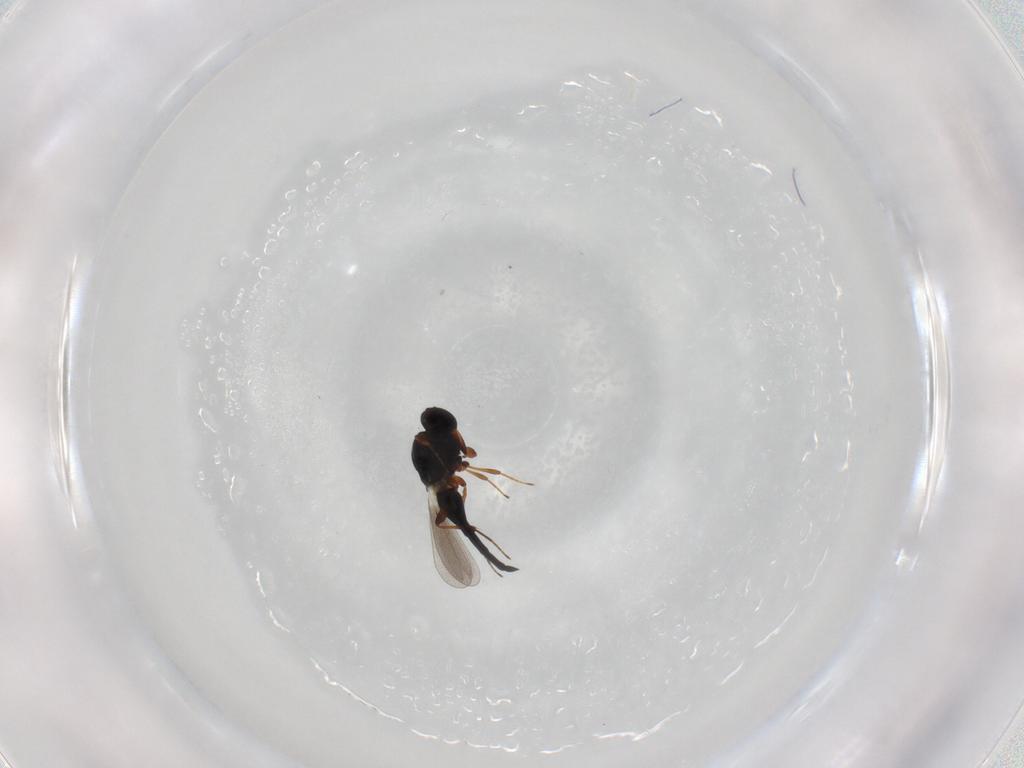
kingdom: Animalia
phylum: Arthropoda
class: Insecta
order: Hymenoptera
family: Platygastridae
